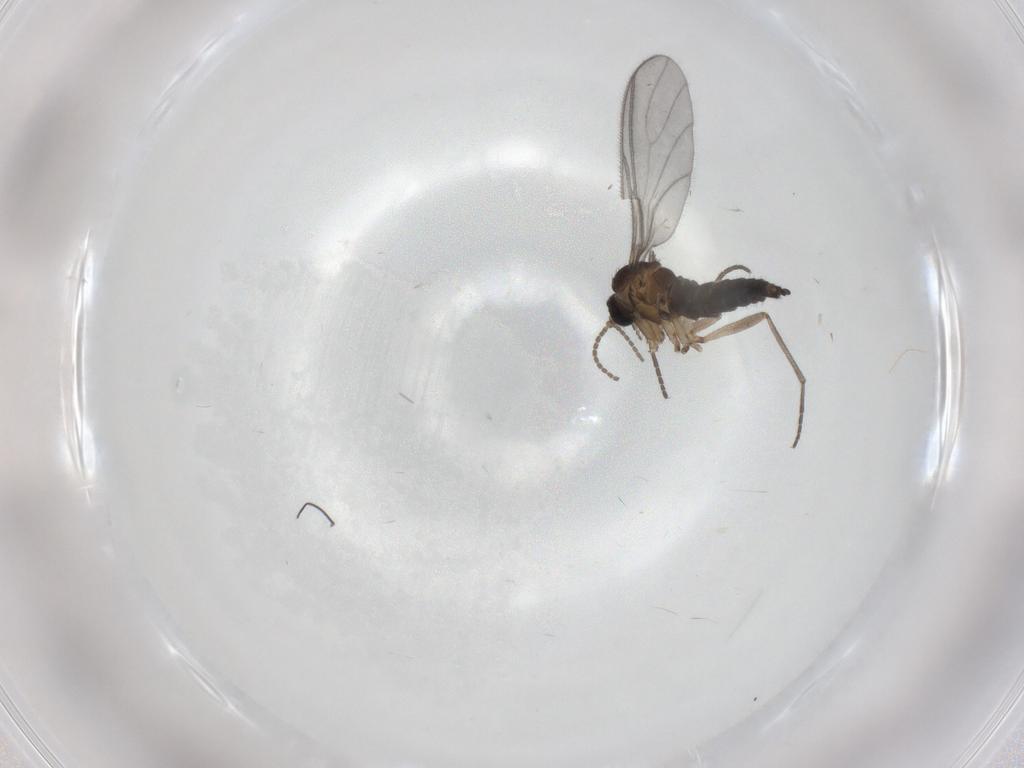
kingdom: Animalia
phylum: Arthropoda
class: Insecta
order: Diptera
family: Sciaridae
